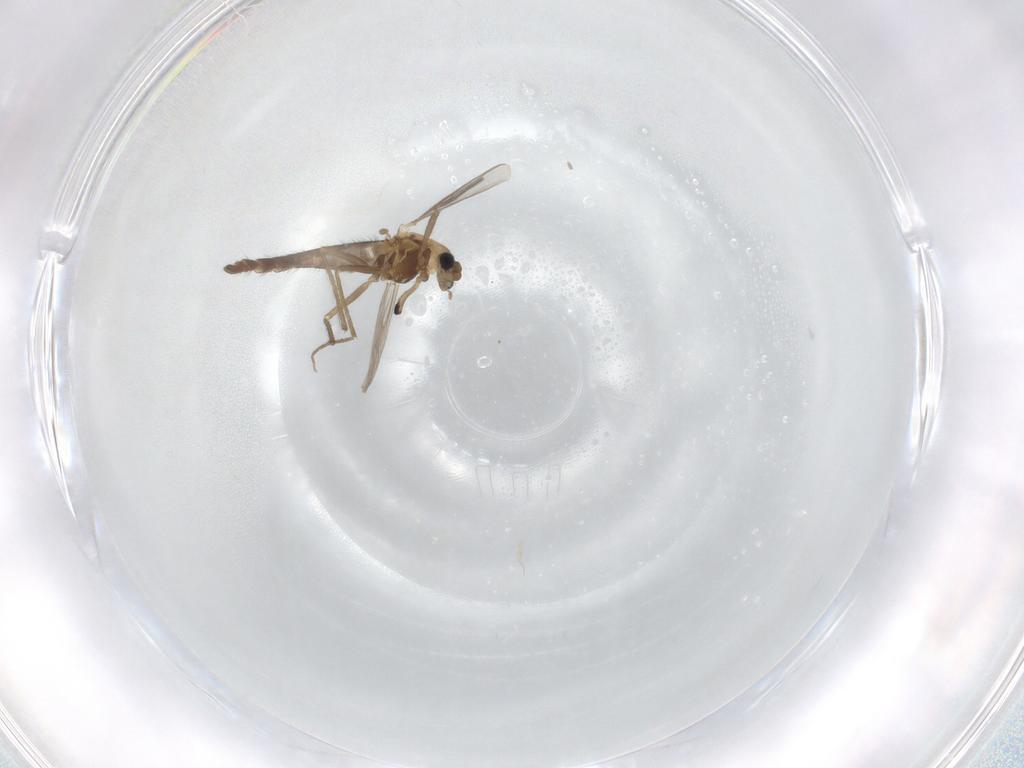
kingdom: Animalia
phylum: Arthropoda
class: Insecta
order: Diptera
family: Chironomidae
